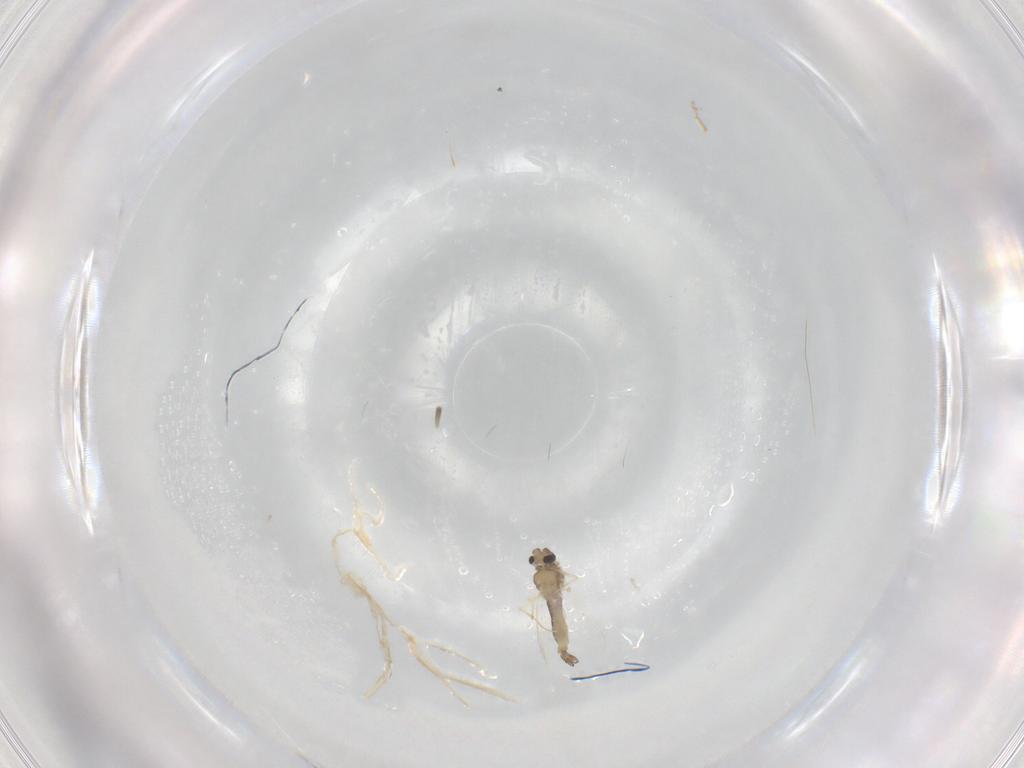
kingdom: Animalia
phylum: Arthropoda
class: Insecta
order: Diptera
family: Chironomidae
